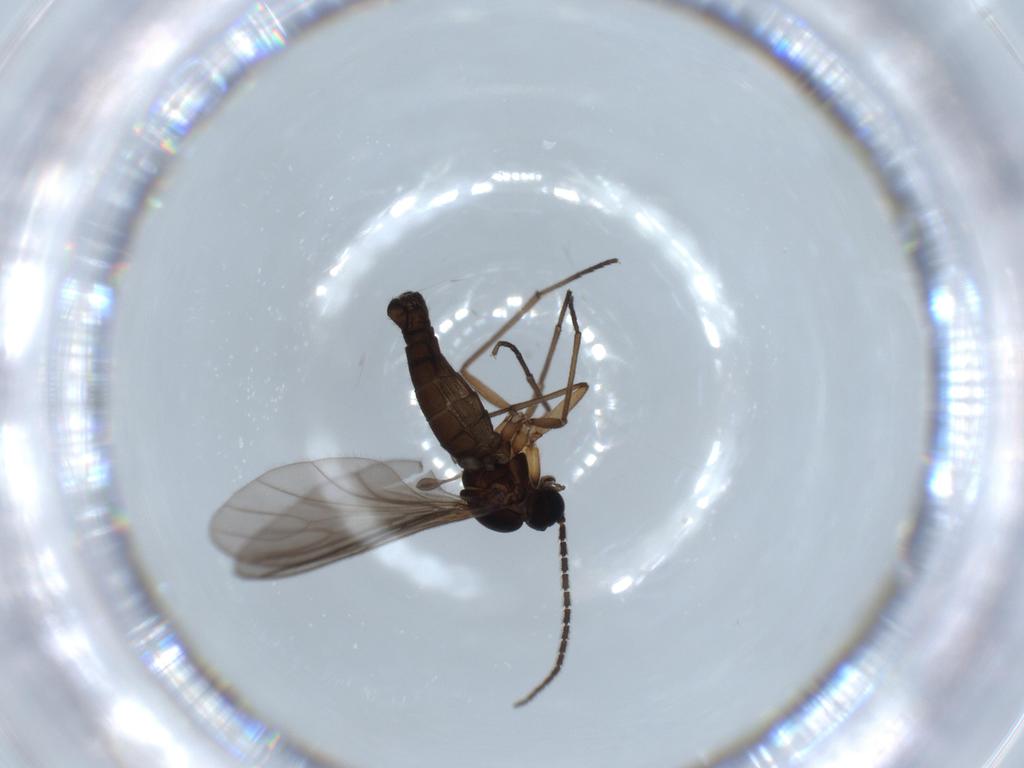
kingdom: Animalia
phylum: Arthropoda
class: Insecta
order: Diptera
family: Sciaridae
